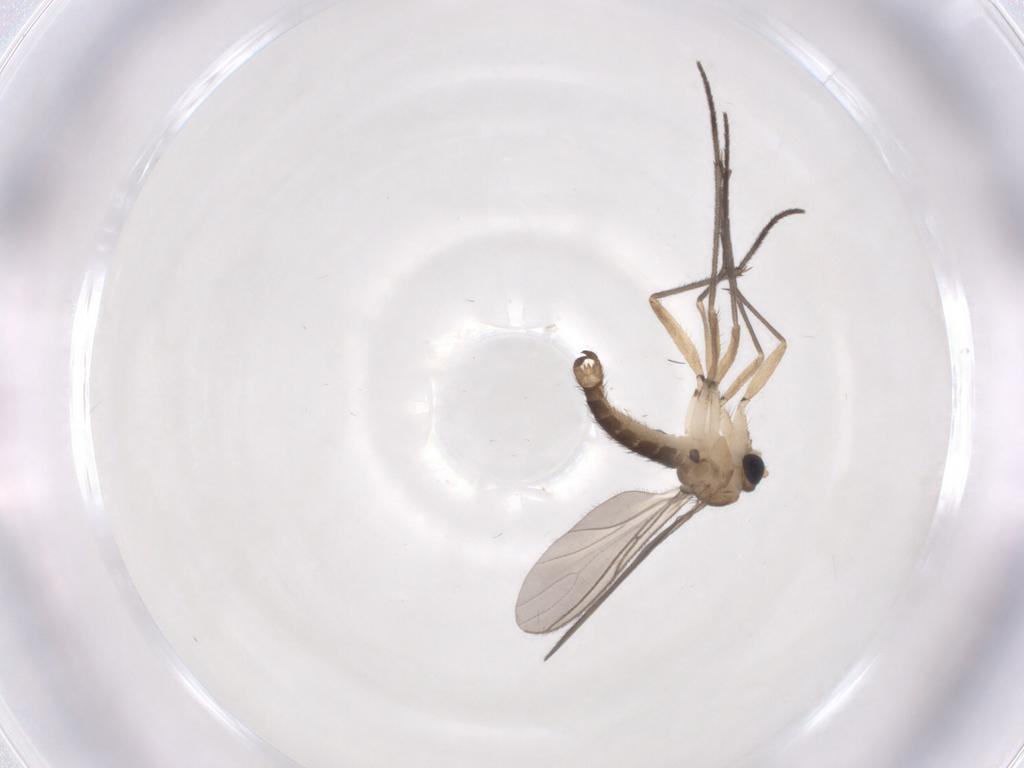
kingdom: Animalia
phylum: Arthropoda
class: Insecta
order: Diptera
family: Sciaridae
